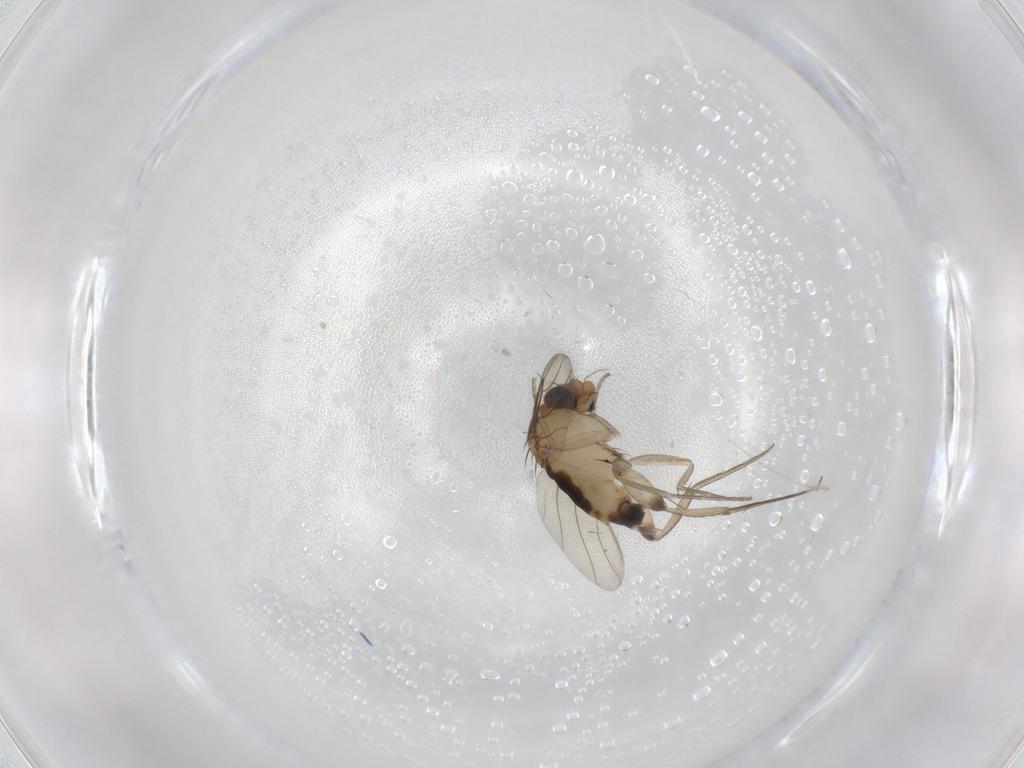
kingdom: Animalia
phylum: Arthropoda
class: Insecta
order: Diptera
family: Phoridae
